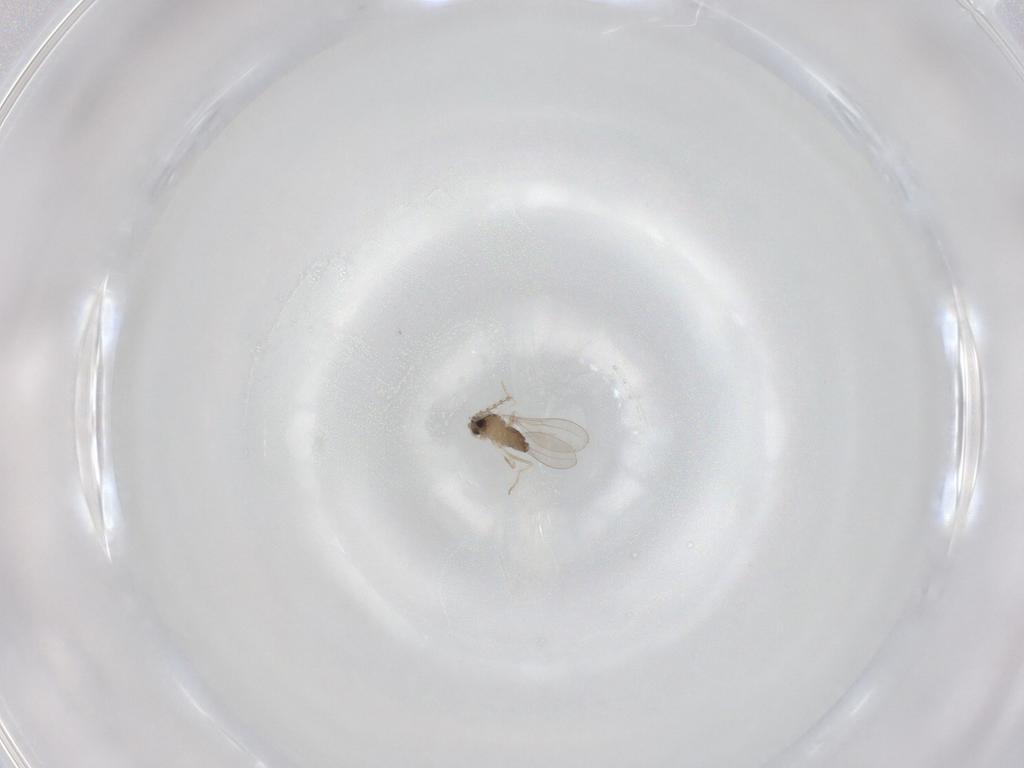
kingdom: Animalia
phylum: Arthropoda
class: Insecta
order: Diptera
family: Cecidomyiidae
